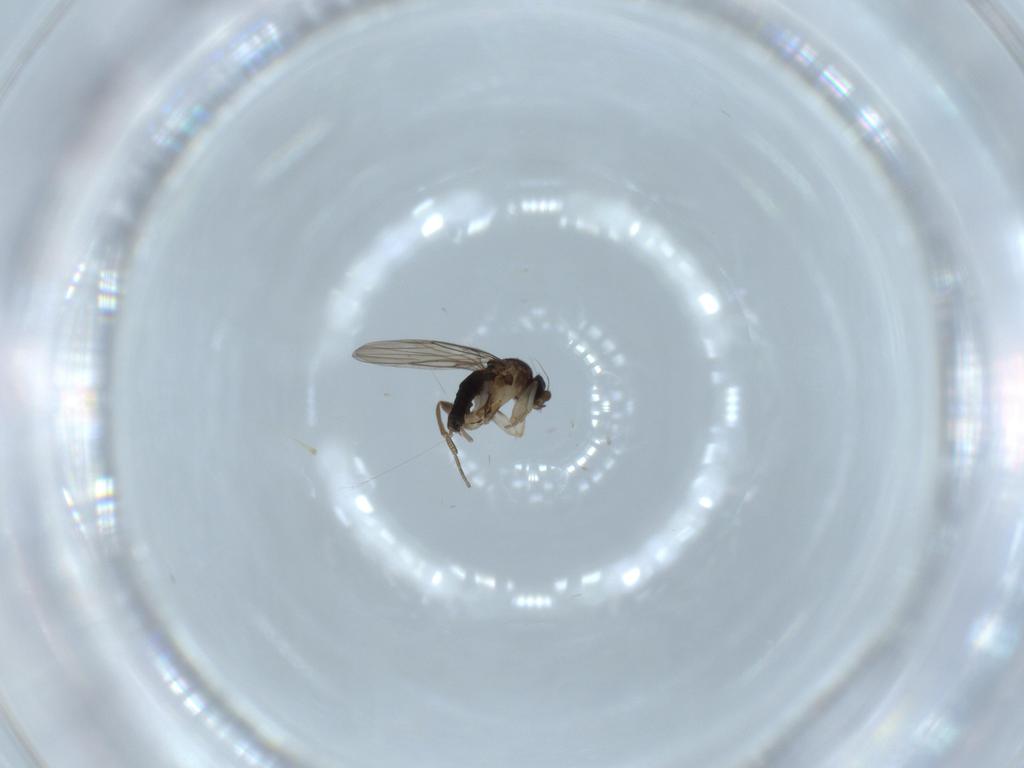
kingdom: Animalia
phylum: Arthropoda
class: Insecta
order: Diptera
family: Phoridae
